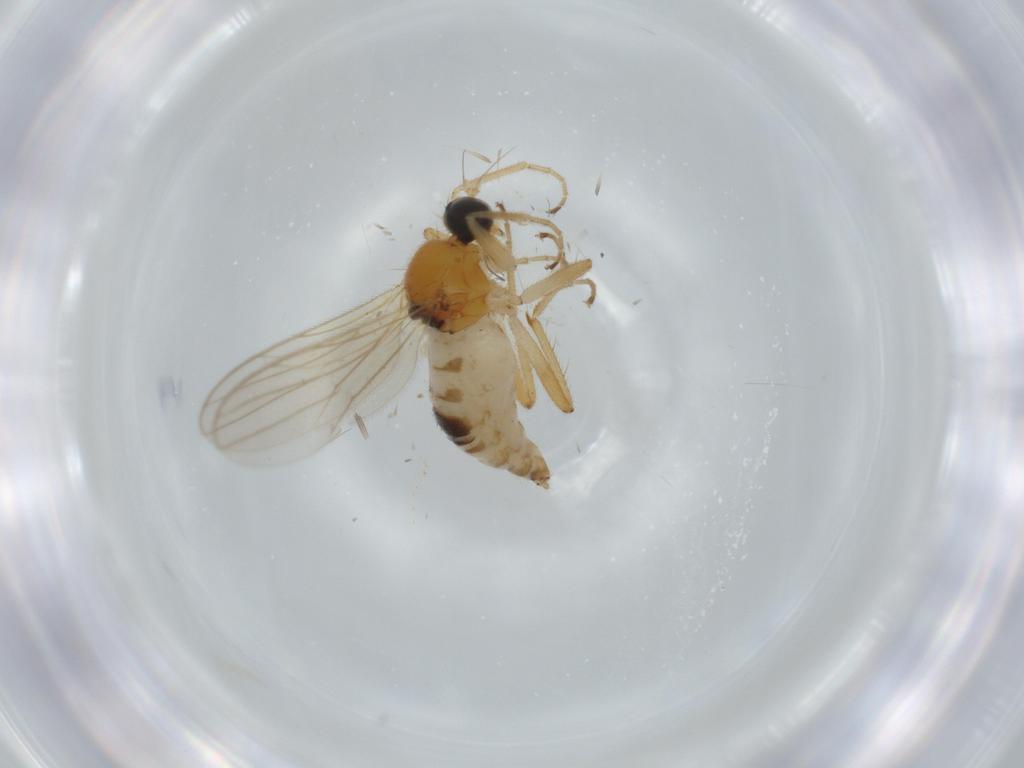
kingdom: Animalia
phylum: Arthropoda
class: Insecta
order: Diptera
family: Hybotidae
